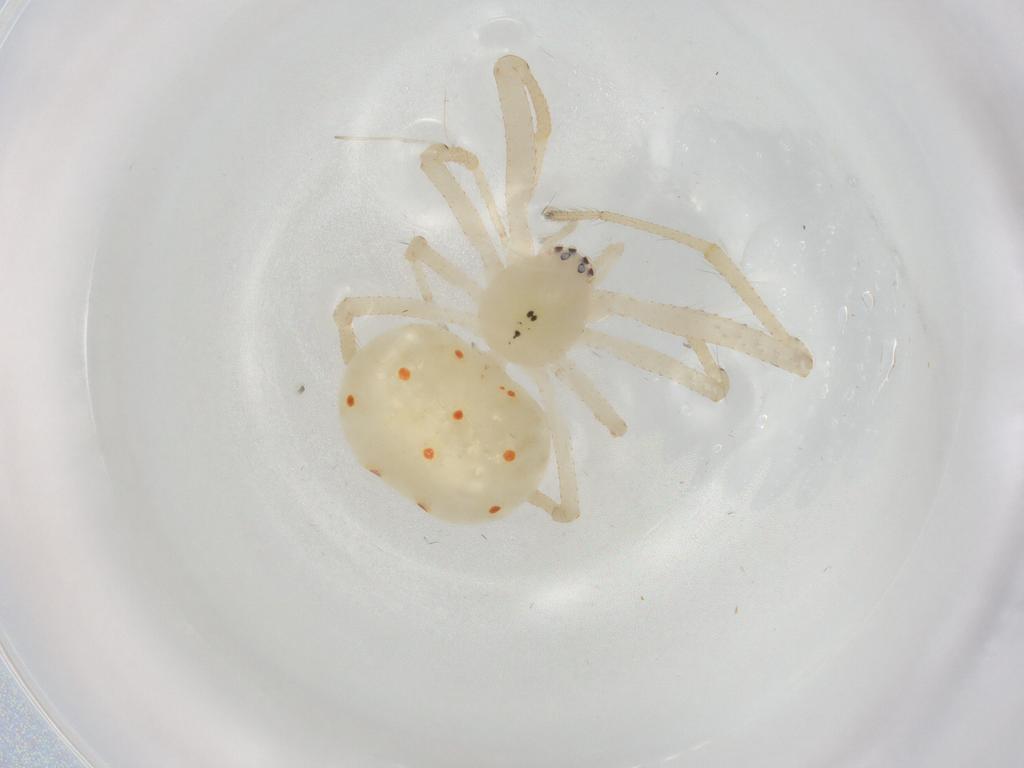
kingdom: Animalia
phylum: Arthropoda
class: Arachnida
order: Araneae
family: Theridiidae
